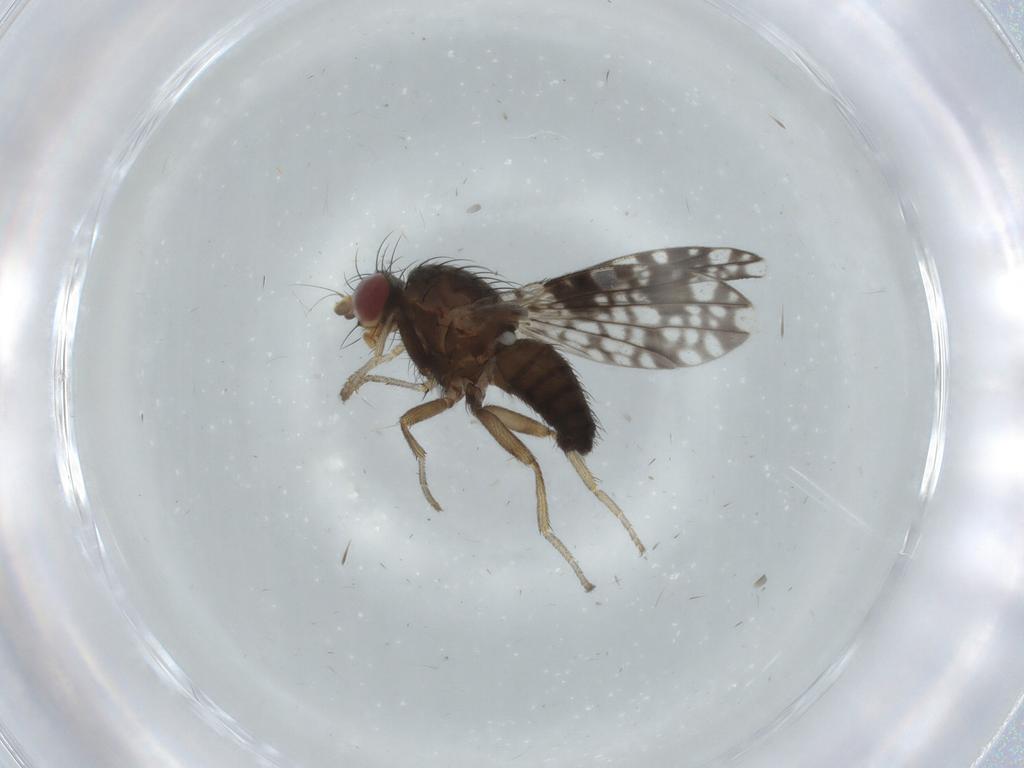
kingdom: Animalia
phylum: Arthropoda
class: Insecta
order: Diptera
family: Tephritidae
